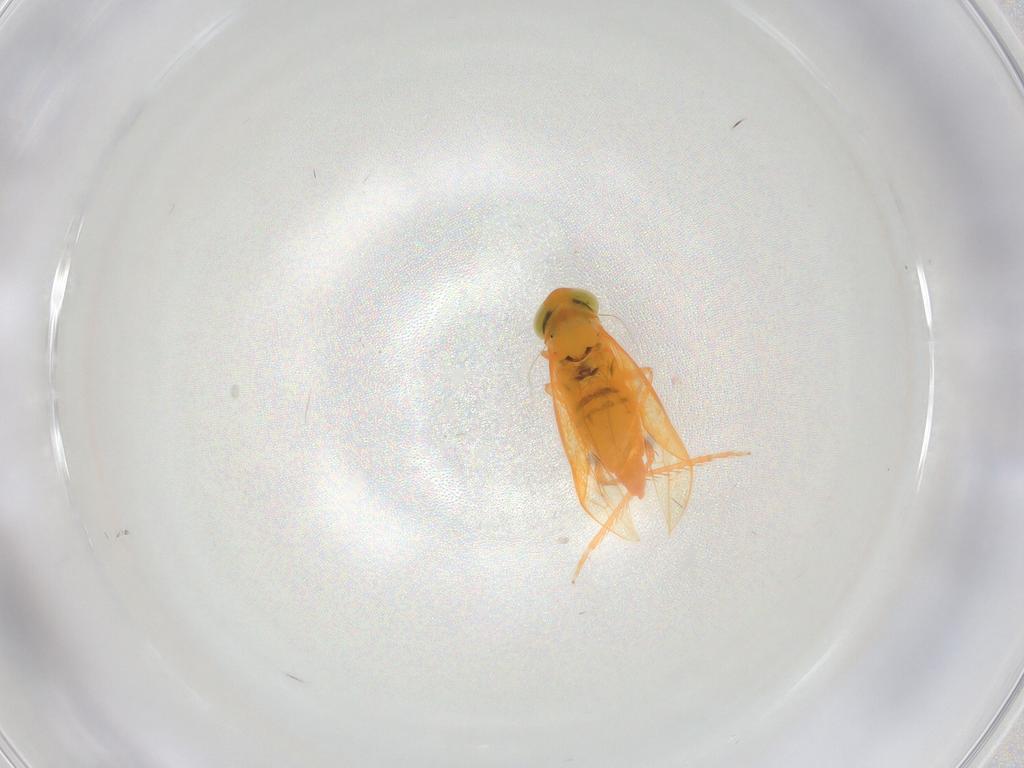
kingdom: Animalia
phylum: Arthropoda
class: Insecta
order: Hemiptera
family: Cicadellidae
